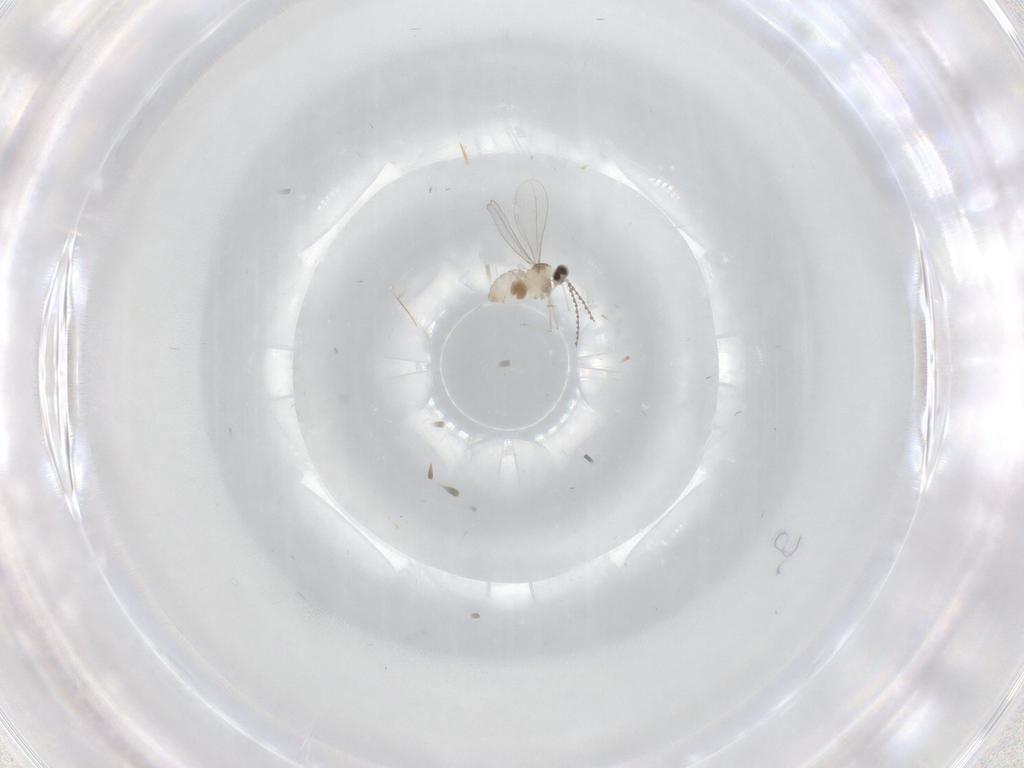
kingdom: Animalia
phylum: Arthropoda
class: Insecta
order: Diptera
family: Cecidomyiidae
